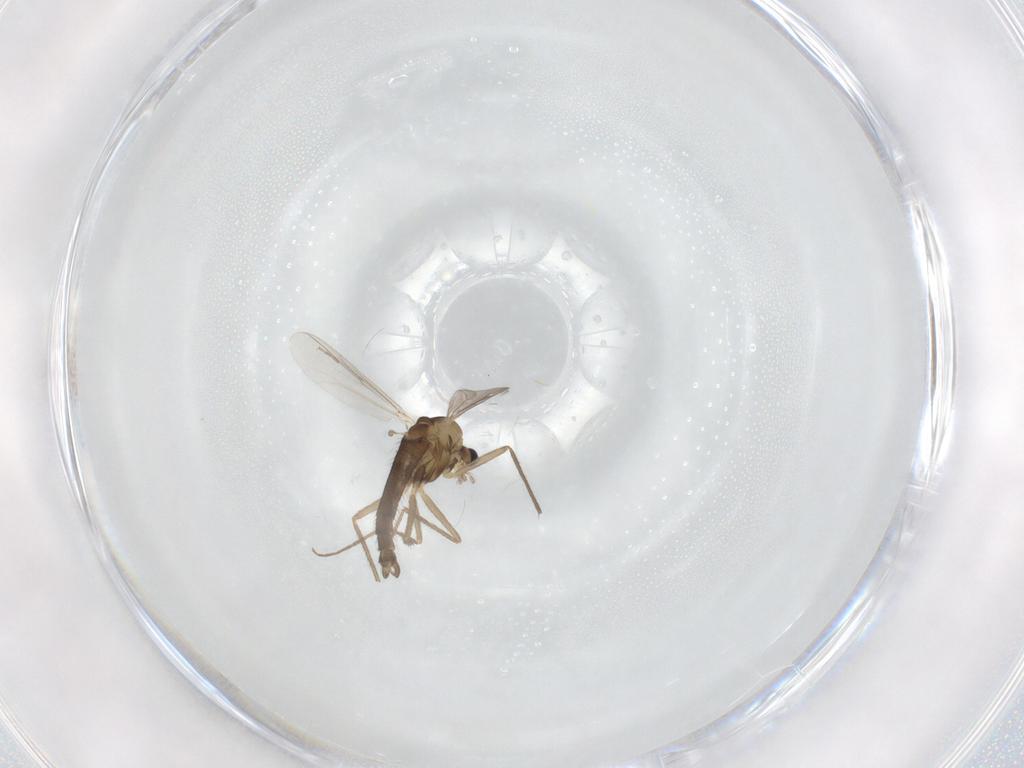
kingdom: Animalia
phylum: Arthropoda
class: Insecta
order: Diptera
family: Chironomidae
